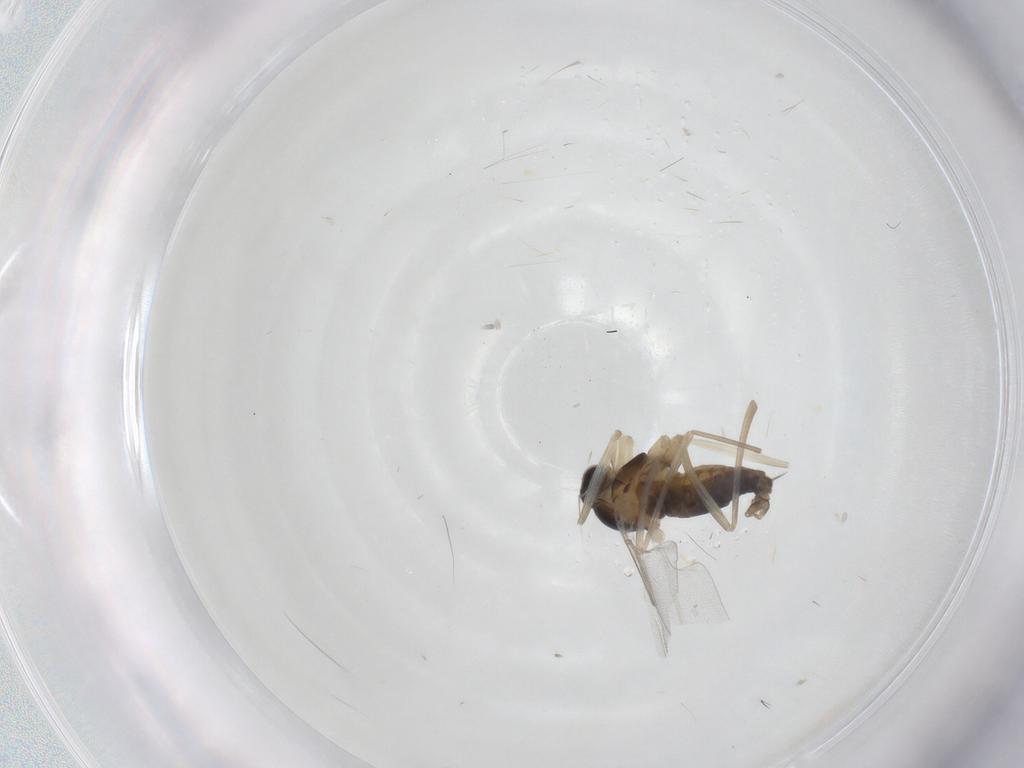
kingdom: Animalia
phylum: Arthropoda
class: Insecta
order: Diptera
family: Cecidomyiidae
